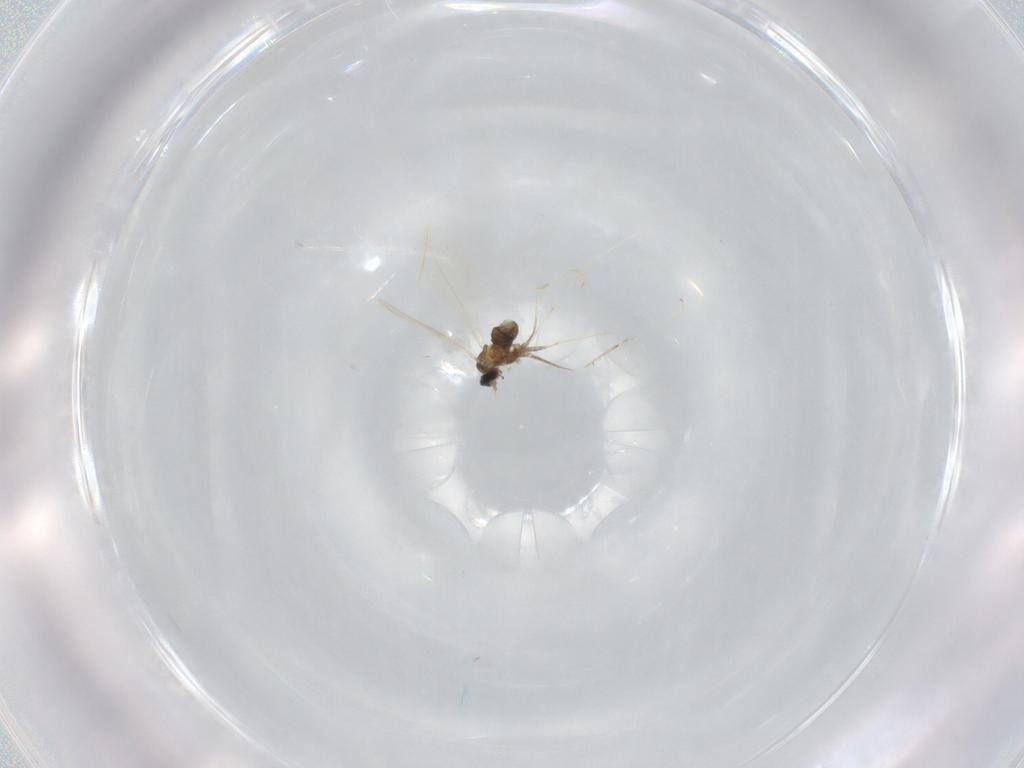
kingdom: Animalia
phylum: Arthropoda
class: Insecta
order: Diptera
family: Cecidomyiidae
